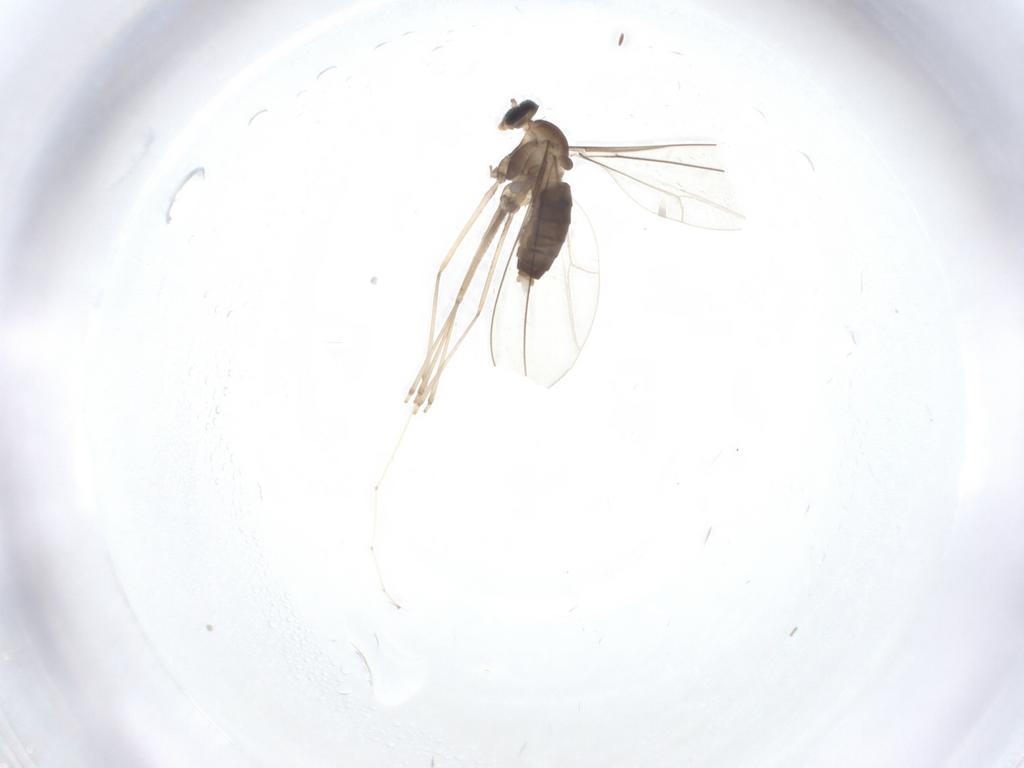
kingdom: Animalia
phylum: Arthropoda
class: Insecta
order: Diptera
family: Cecidomyiidae
